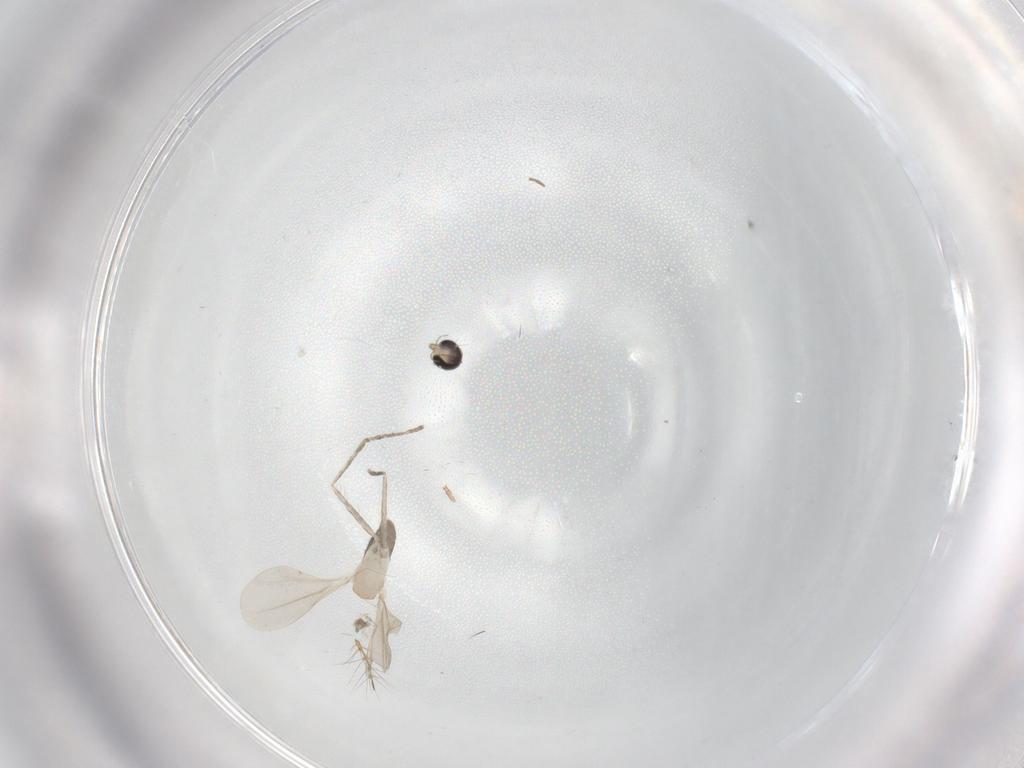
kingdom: Animalia
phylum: Arthropoda
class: Insecta
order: Diptera
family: Cecidomyiidae
